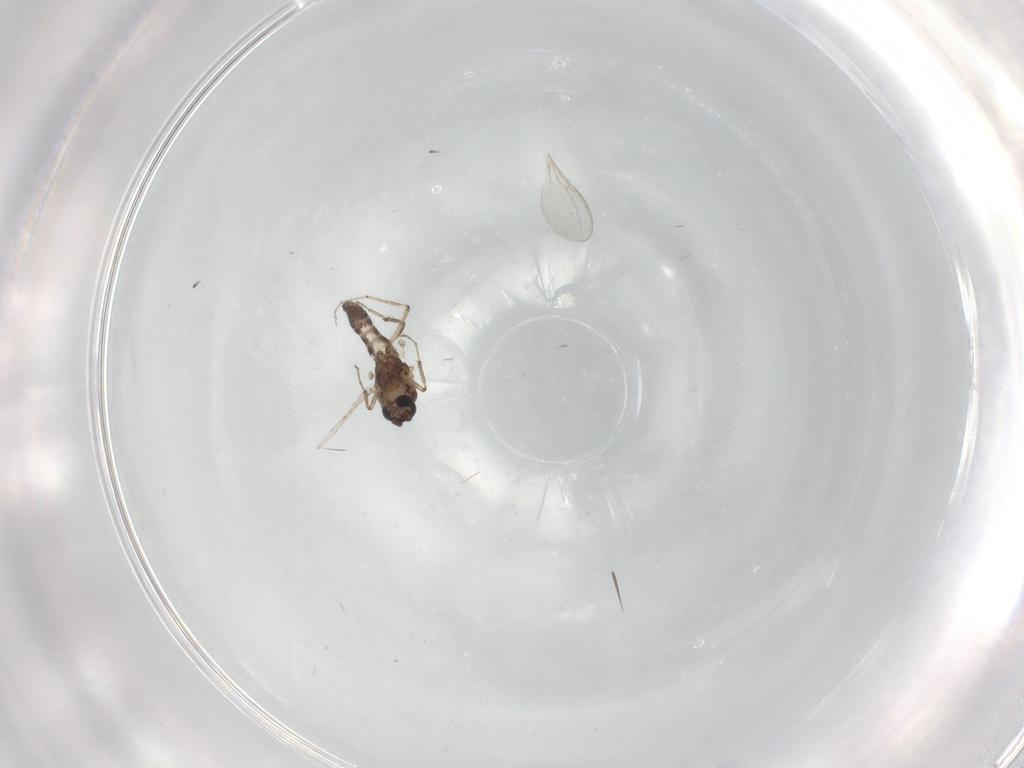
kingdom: Animalia
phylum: Arthropoda
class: Insecta
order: Diptera
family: Ceratopogonidae
